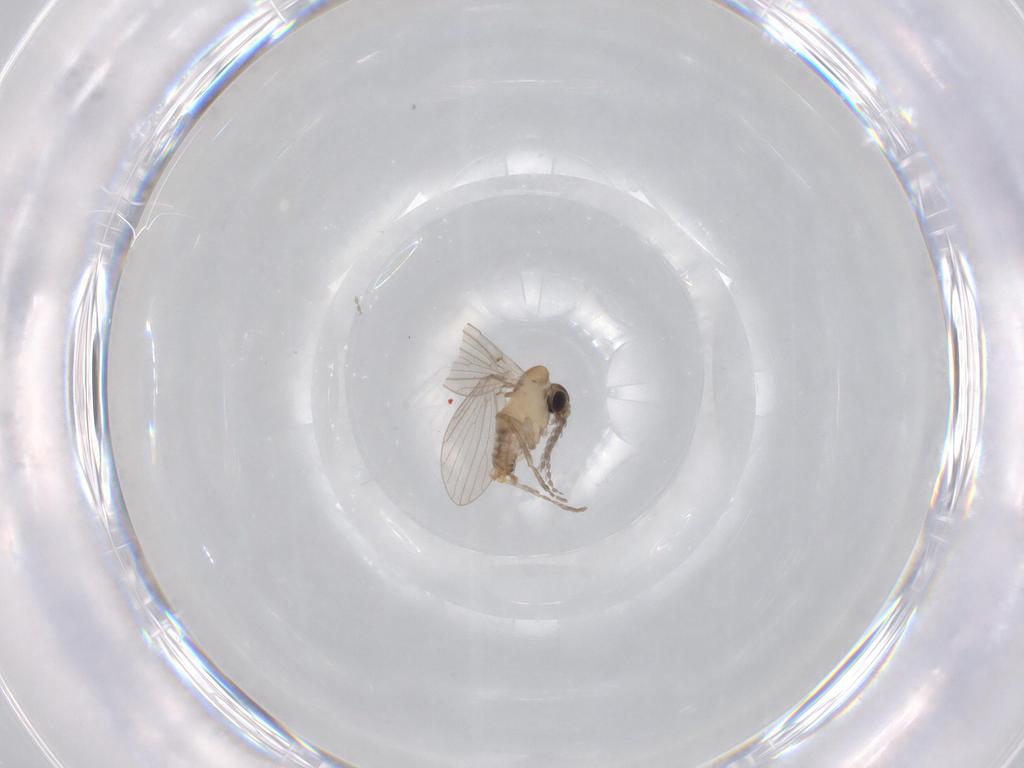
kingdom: Animalia
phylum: Arthropoda
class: Insecta
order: Diptera
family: Psychodidae
